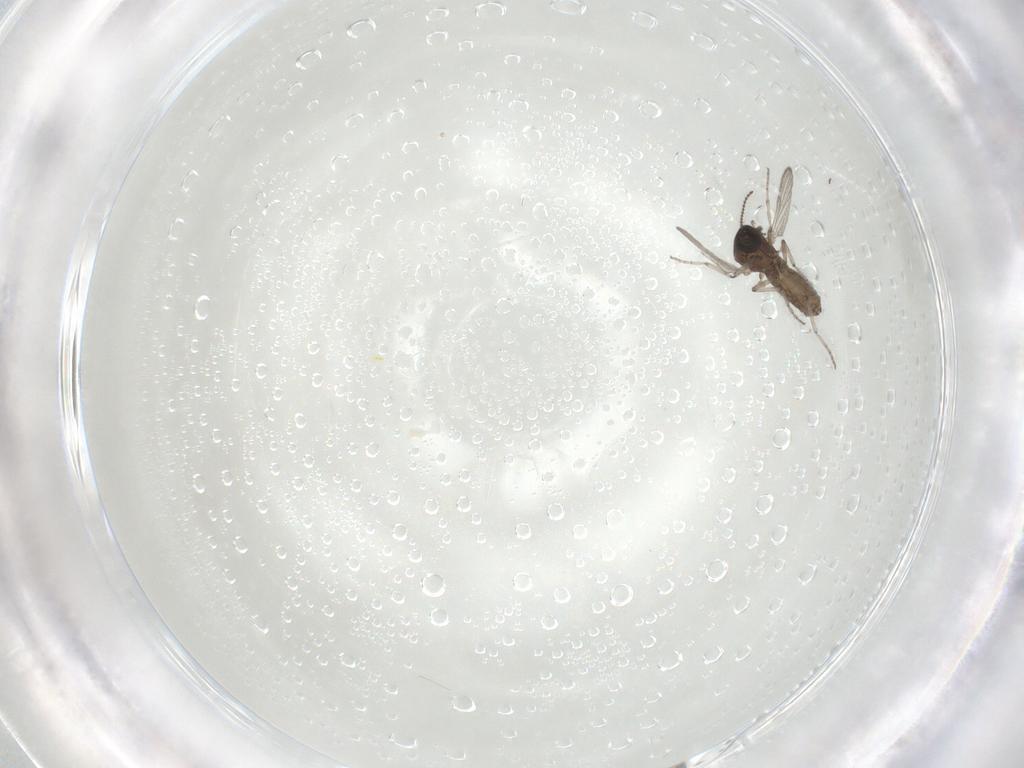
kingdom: Animalia
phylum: Arthropoda
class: Insecta
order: Diptera
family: Ceratopogonidae
